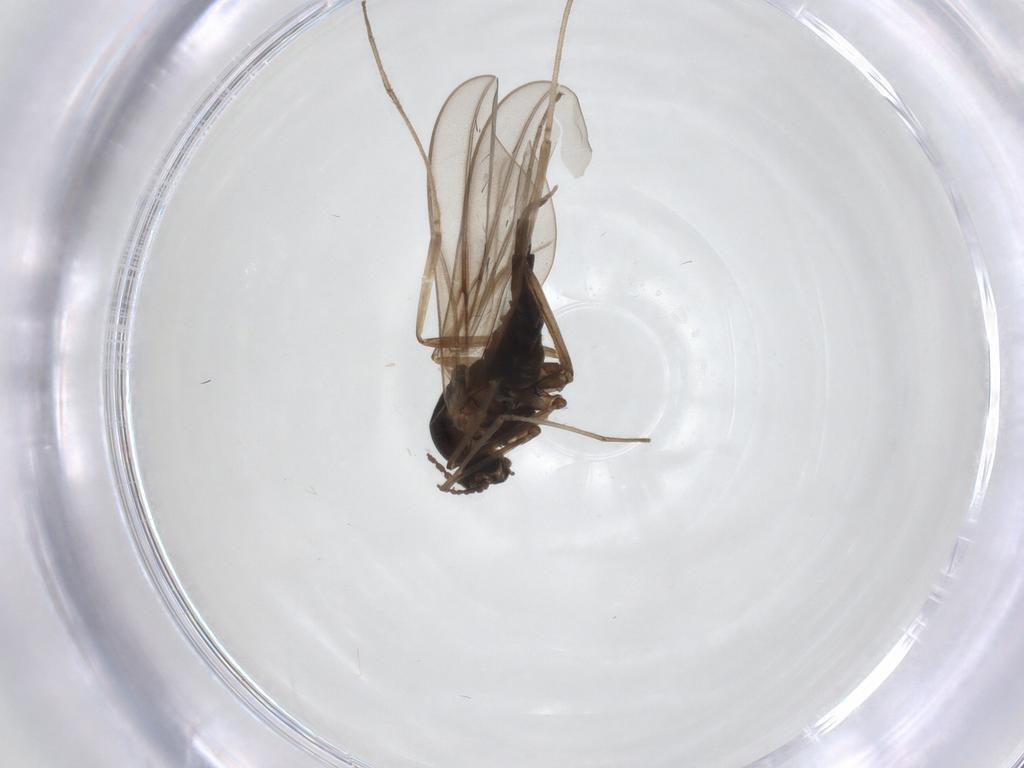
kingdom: Animalia
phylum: Arthropoda
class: Insecta
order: Diptera
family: Cecidomyiidae
